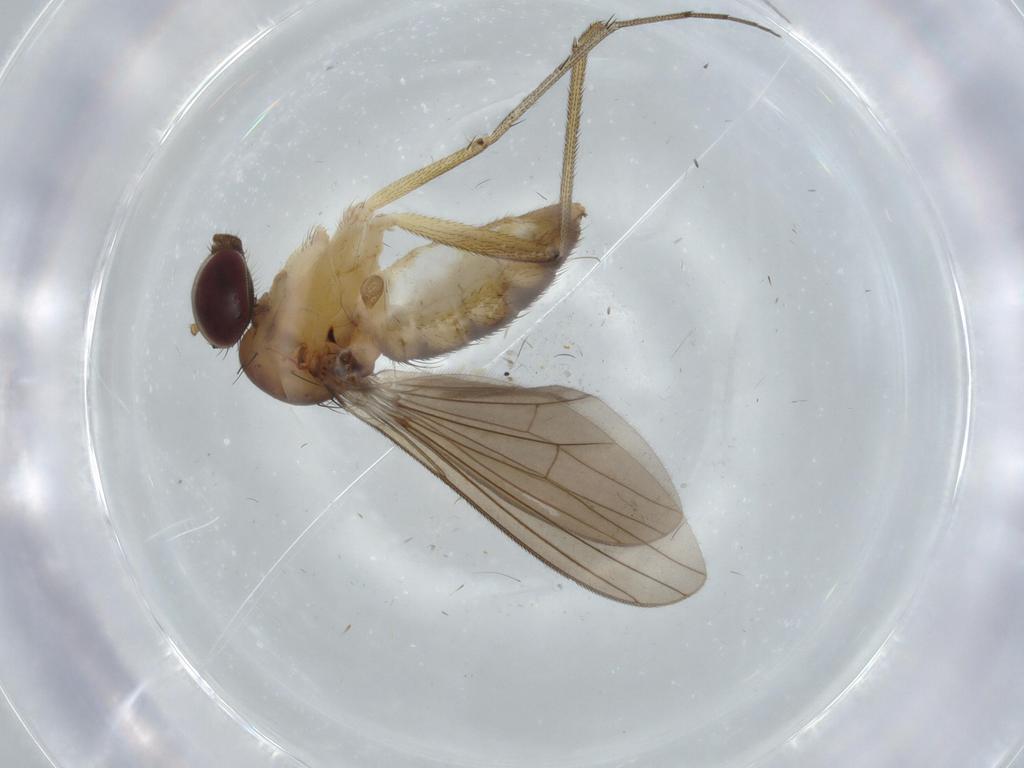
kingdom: Animalia
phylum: Arthropoda
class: Insecta
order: Diptera
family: Dolichopodidae
